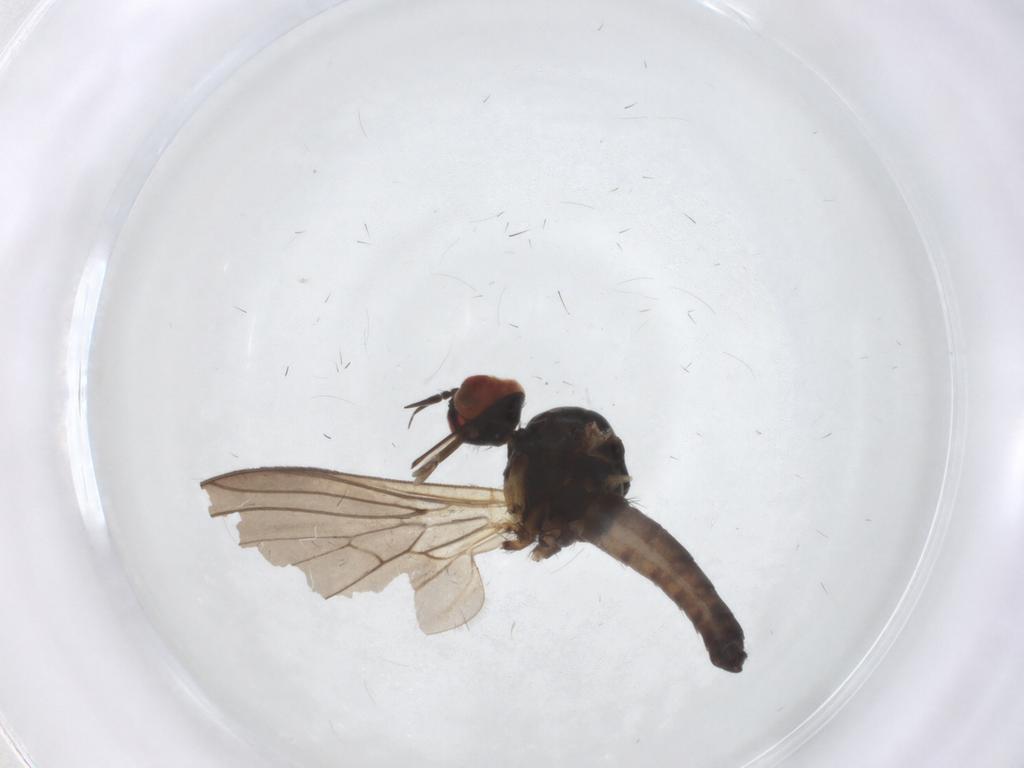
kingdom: Animalia
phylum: Arthropoda
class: Insecta
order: Diptera
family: Empididae
